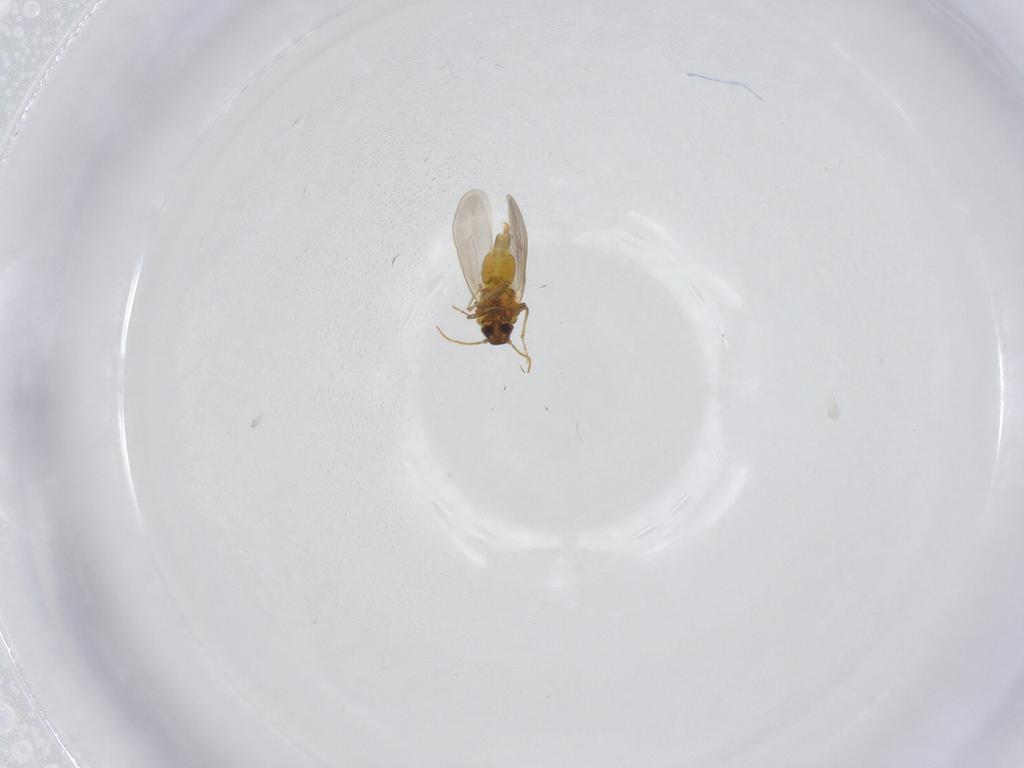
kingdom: Animalia
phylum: Arthropoda
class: Insecta
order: Hemiptera
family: Aleyrodidae
